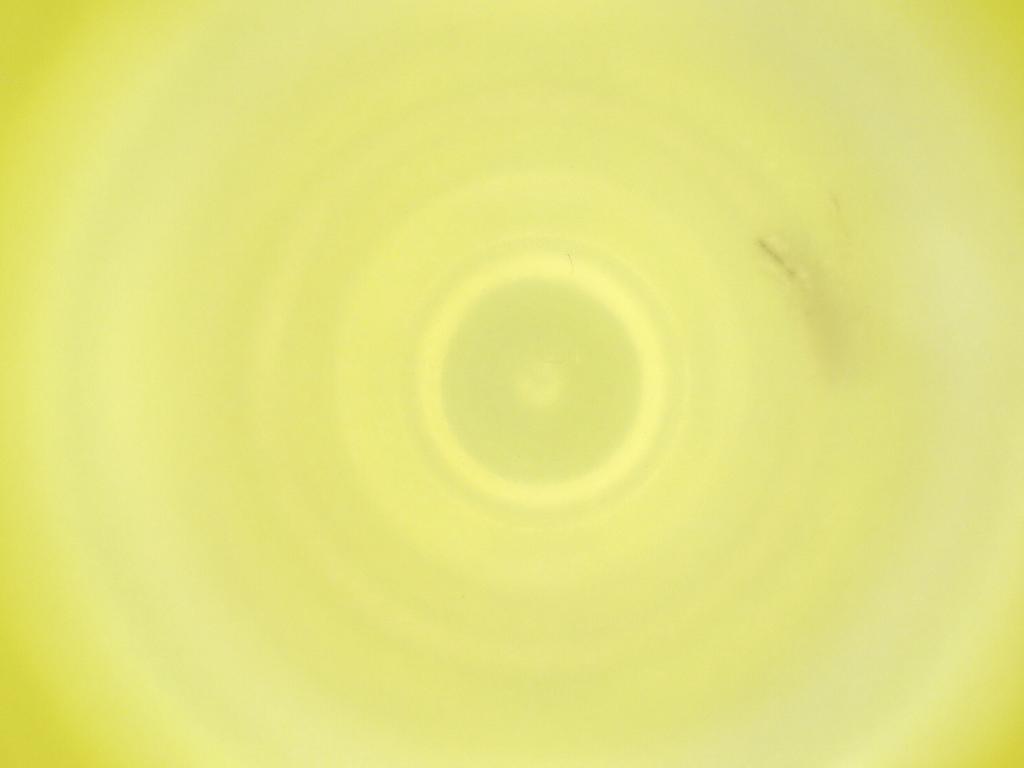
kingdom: Animalia
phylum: Arthropoda
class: Insecta
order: Diptera
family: Cecidomyiidae
